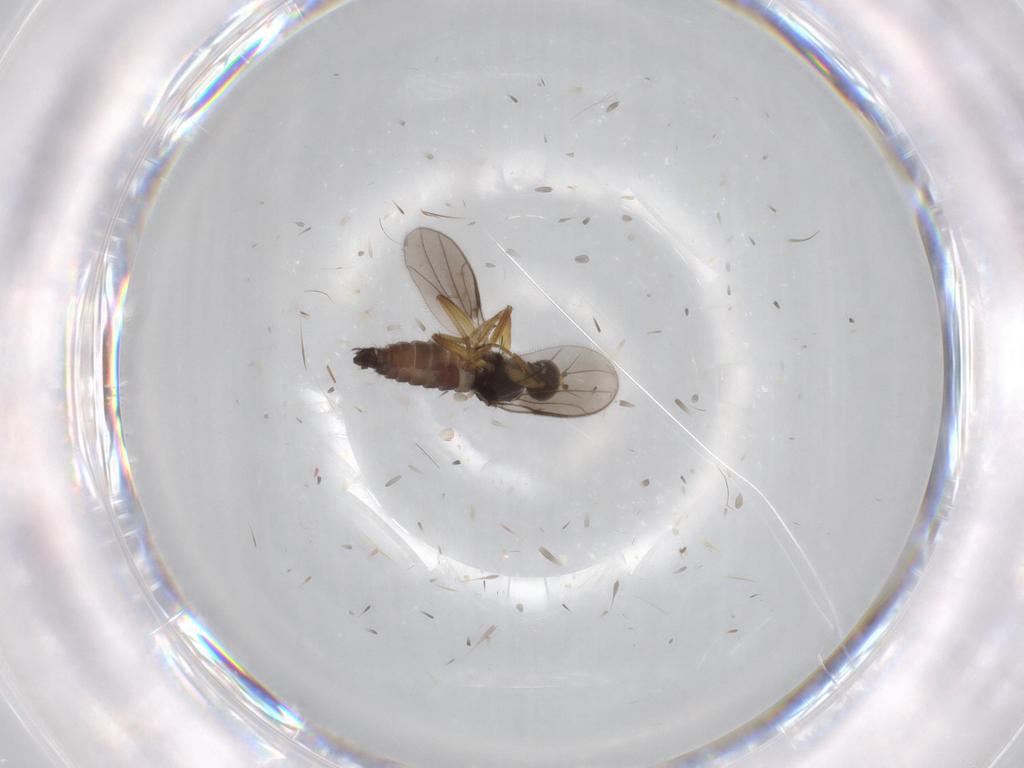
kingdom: Animalia
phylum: Arthropoda
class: Insecta
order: Diptera
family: Hybotidae
